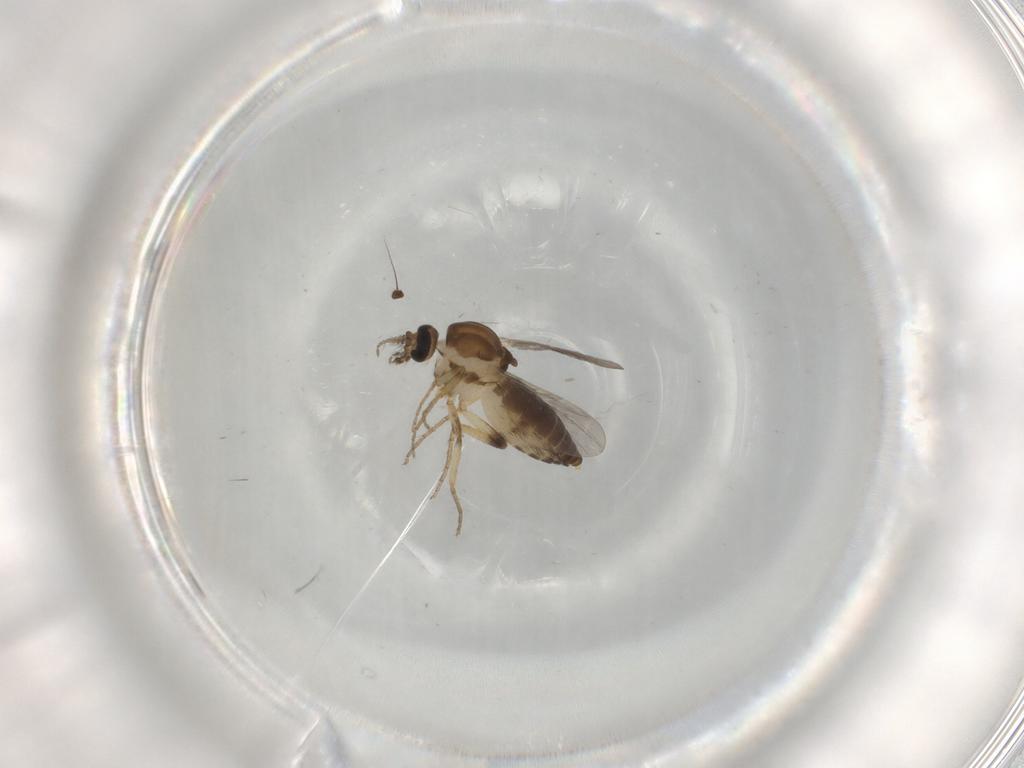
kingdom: Animalia
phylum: Arthropoda
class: Insecta
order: Diptera
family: Ceratopogonidae
